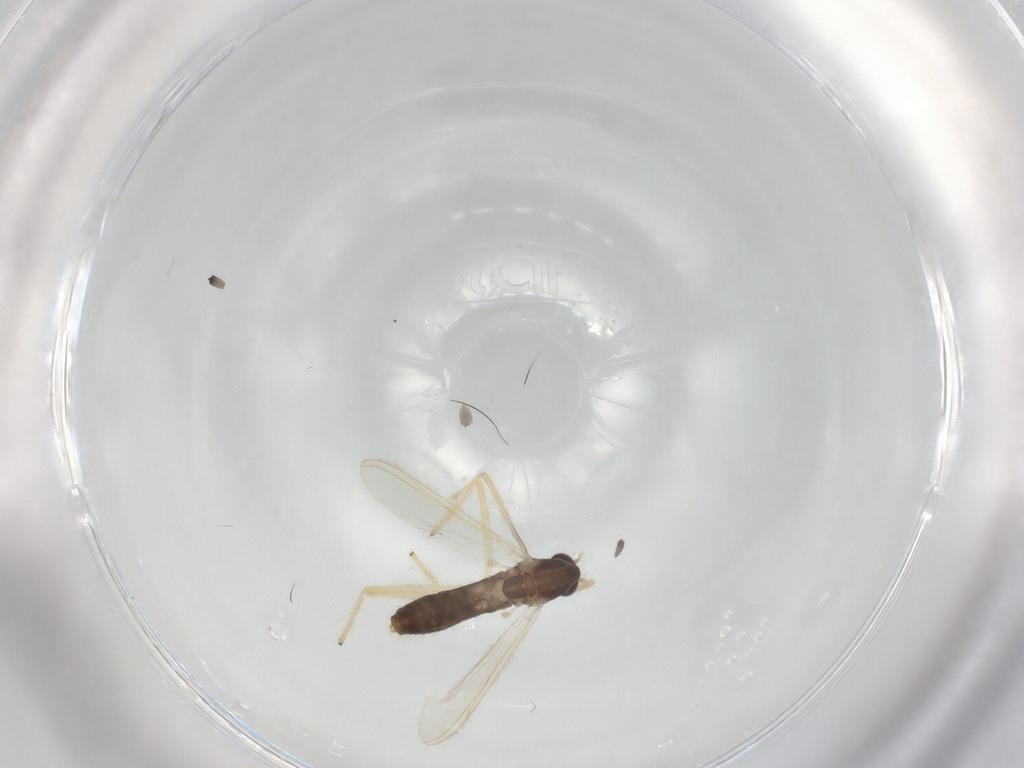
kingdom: Animalia
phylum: Arthropoda
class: Insecta
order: Diptera
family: Chironomidae
